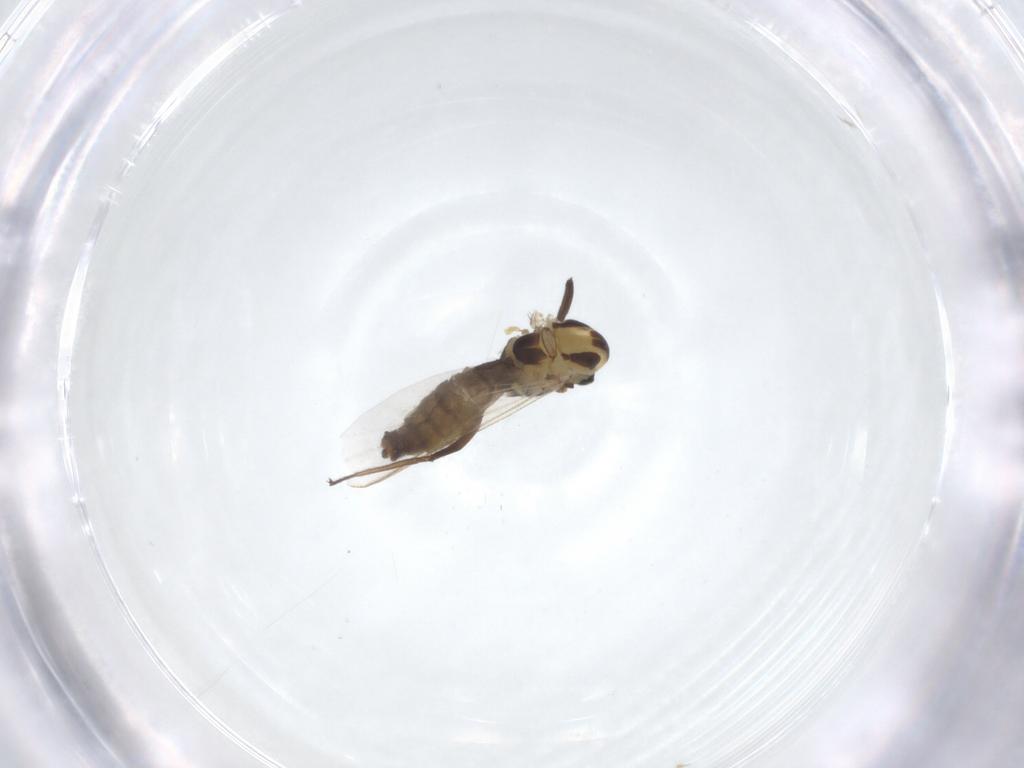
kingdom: Animalia
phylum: Arthropoda
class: Insecta
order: Diptera
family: Chironomidae
